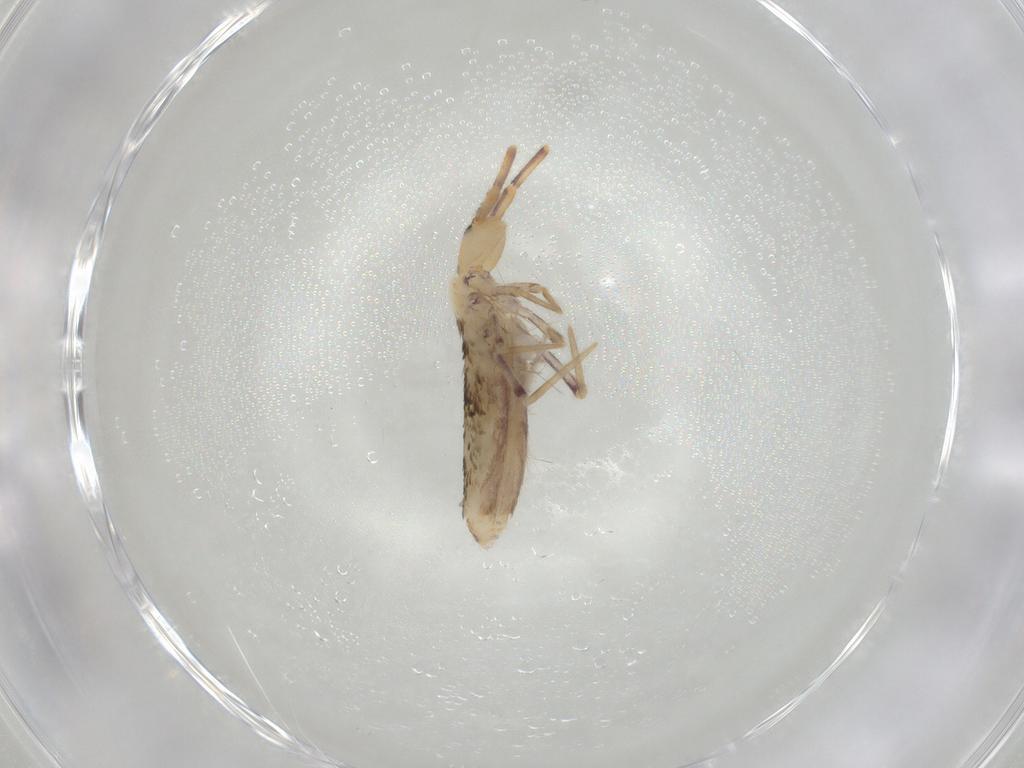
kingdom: Animalia
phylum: Arthropoda
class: Collembola
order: Poduromorpha
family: Hypogastruridae
